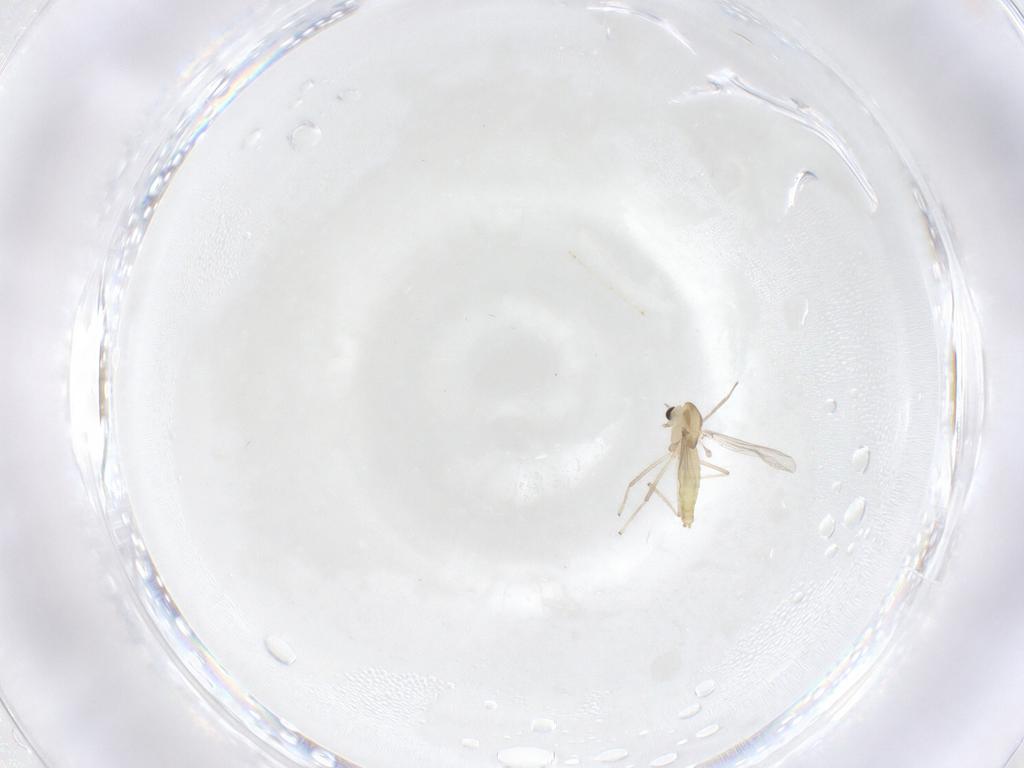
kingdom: Animalia
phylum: Arthropoda
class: Insecta
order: Diptera
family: Chironomidae
